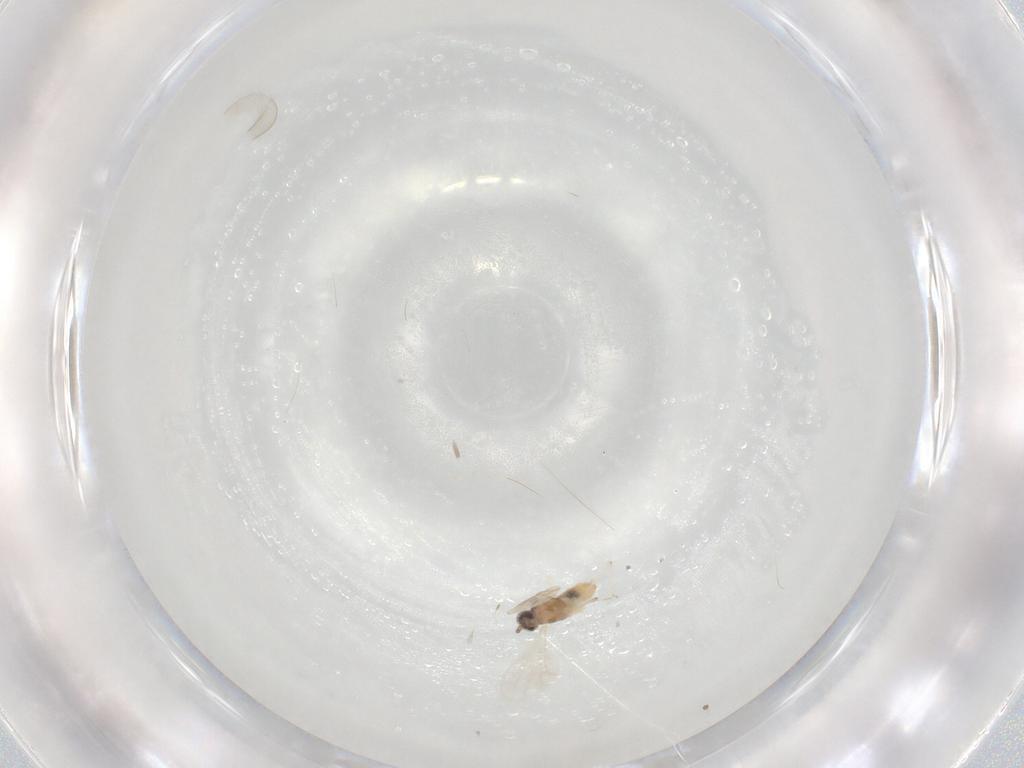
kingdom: Animalia
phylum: Arthropoda
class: Insecta
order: Diptera
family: Cecidomyiidae
